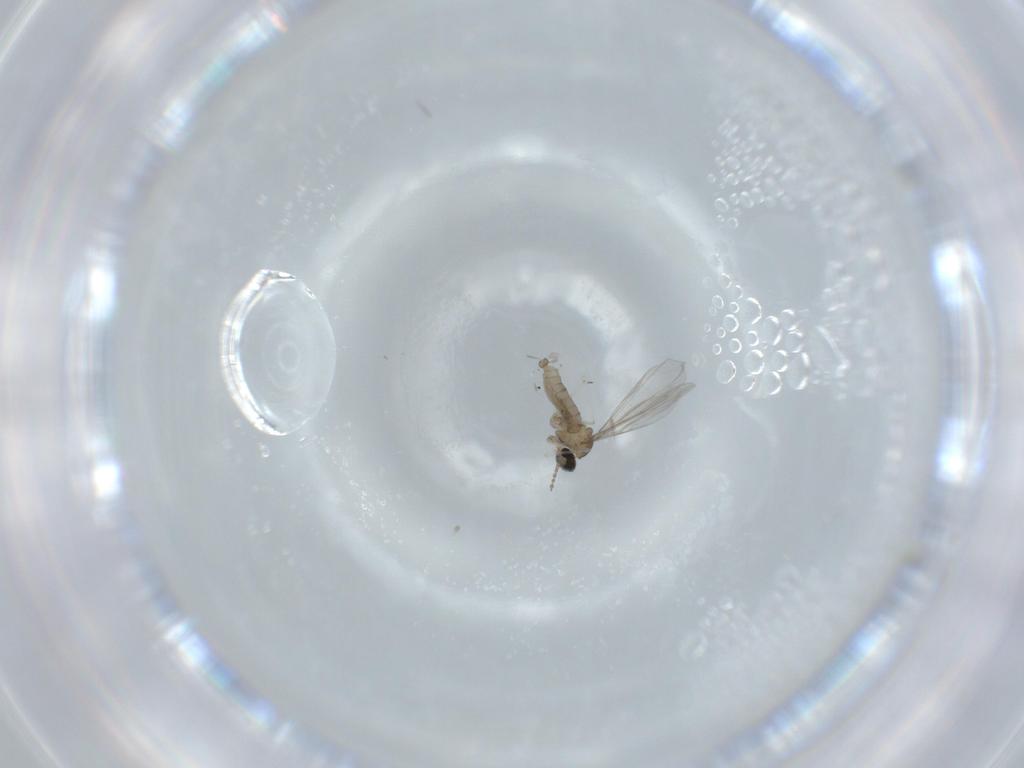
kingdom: Animalia
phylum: Arthropoda
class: Insecta
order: Diptera
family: Cecidomyiidae
